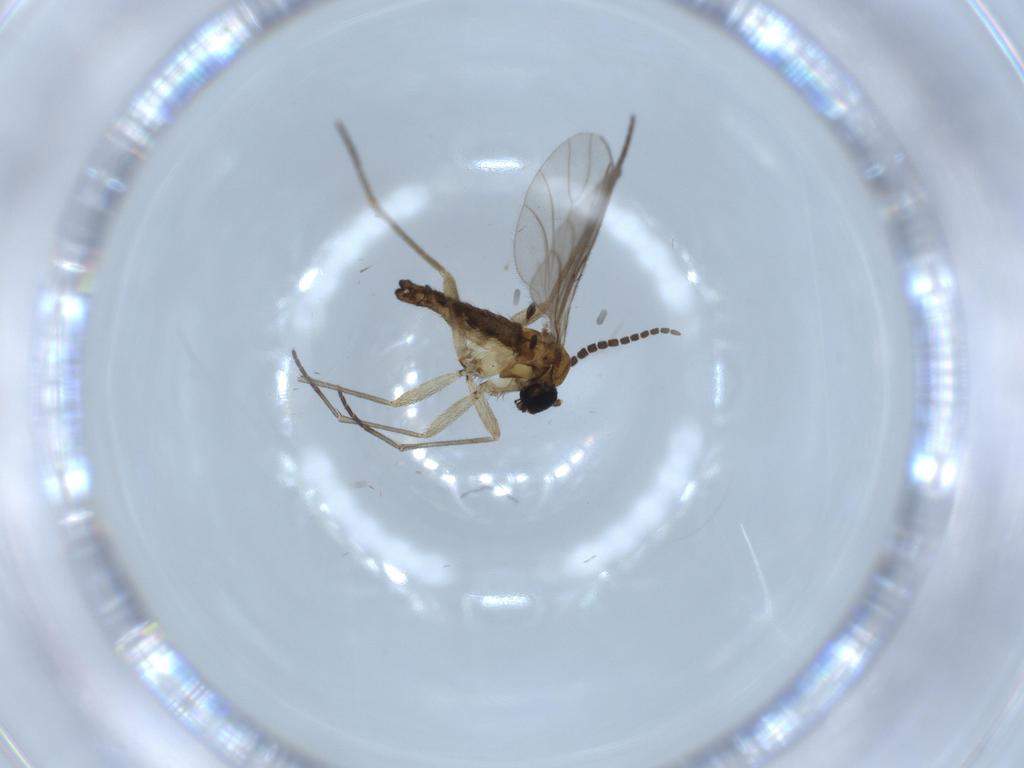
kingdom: Animalia
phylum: Arthropoda
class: Insecta
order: Diptera
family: Sciaridae
